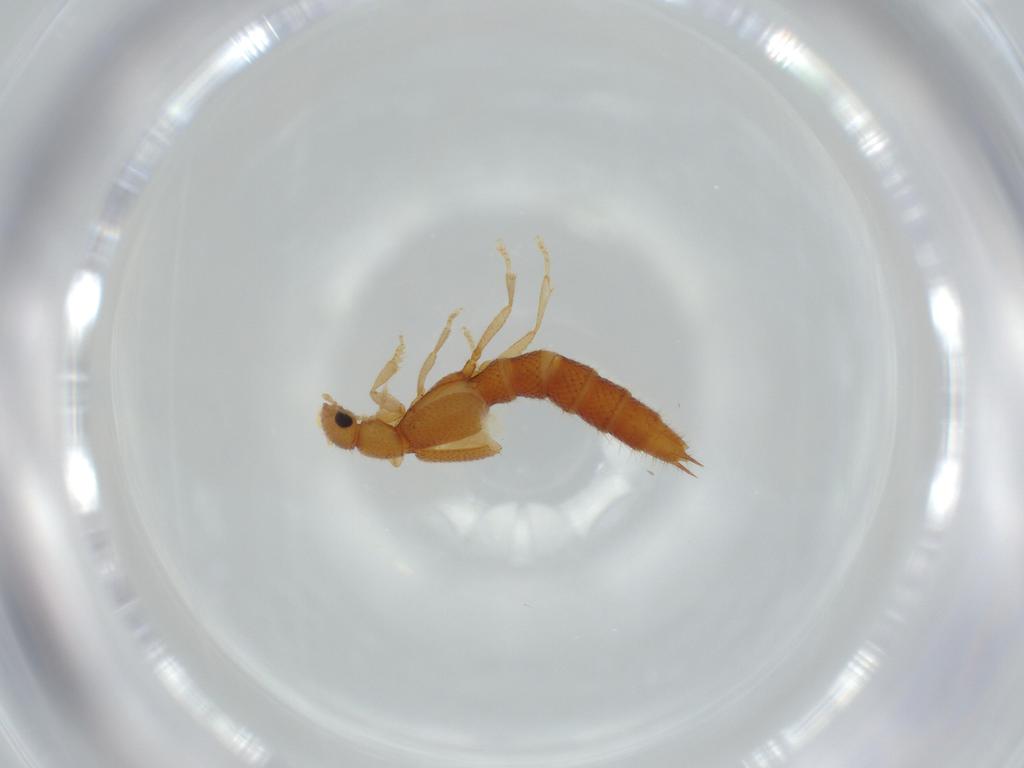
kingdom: Animalia
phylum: Arthropoda
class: Insecta
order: Coleoptera
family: Staphylinidae
